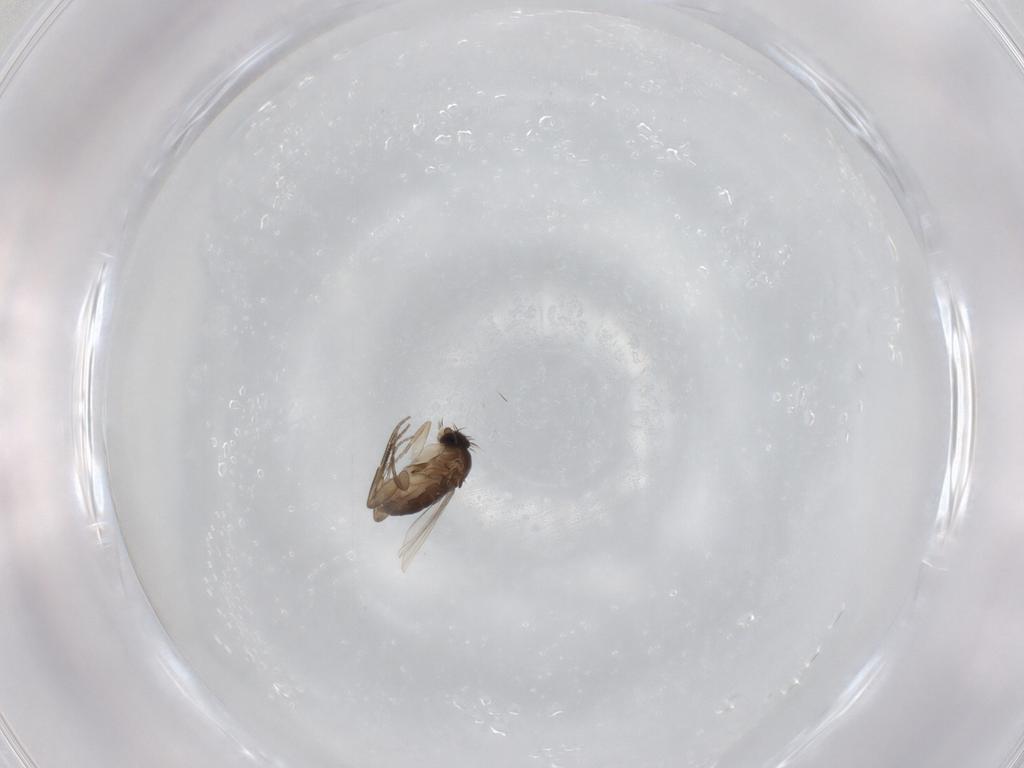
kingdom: Animalia
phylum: Arthropoda
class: Insecta
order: Diptera
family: Phoridae
